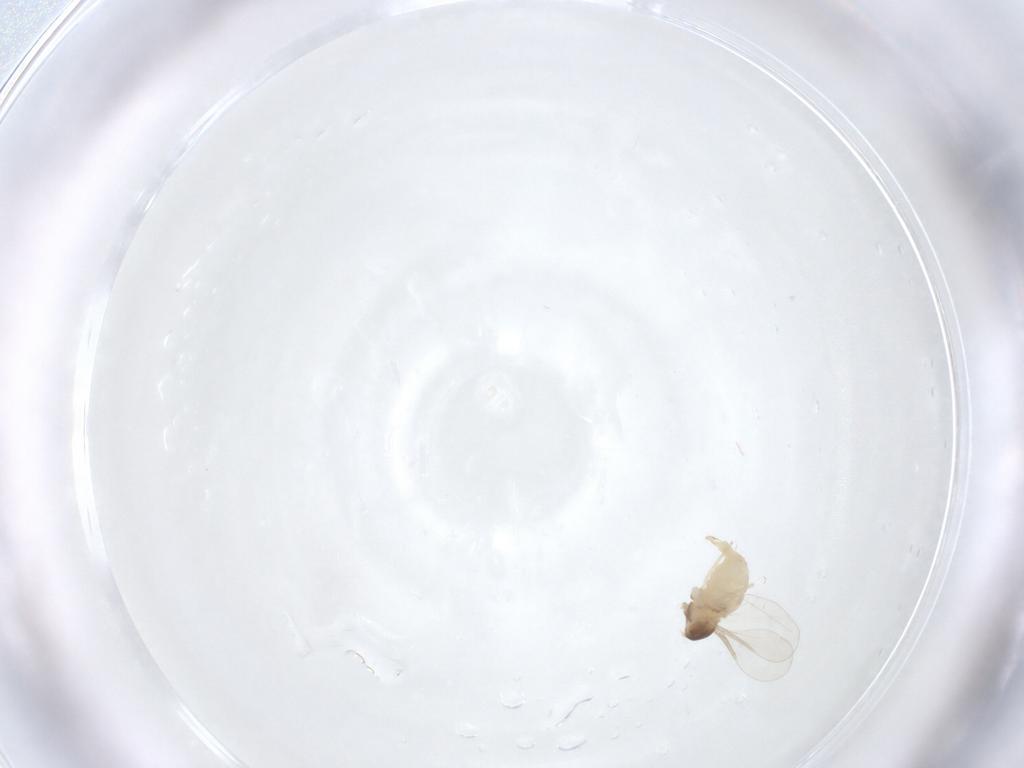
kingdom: Animalia
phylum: Arthropoda
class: Insecta
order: Diptera
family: Cecidomyiidae
